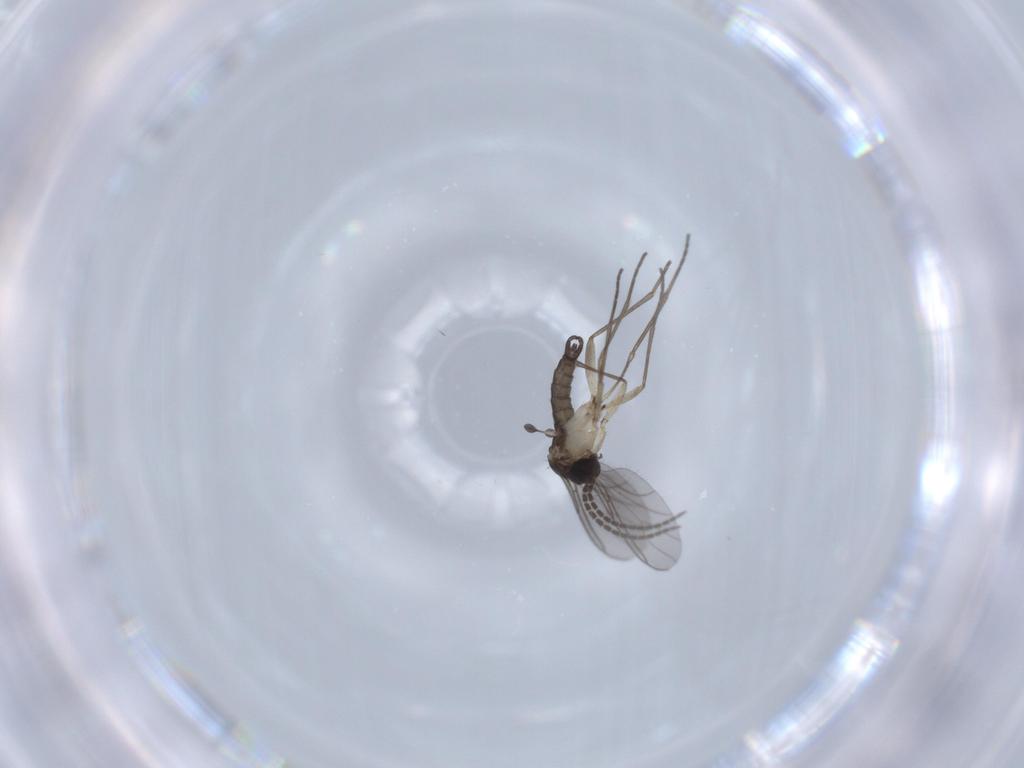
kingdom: Animalia
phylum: Arthropoda
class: Insecta
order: Diptera
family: Sciaridae
